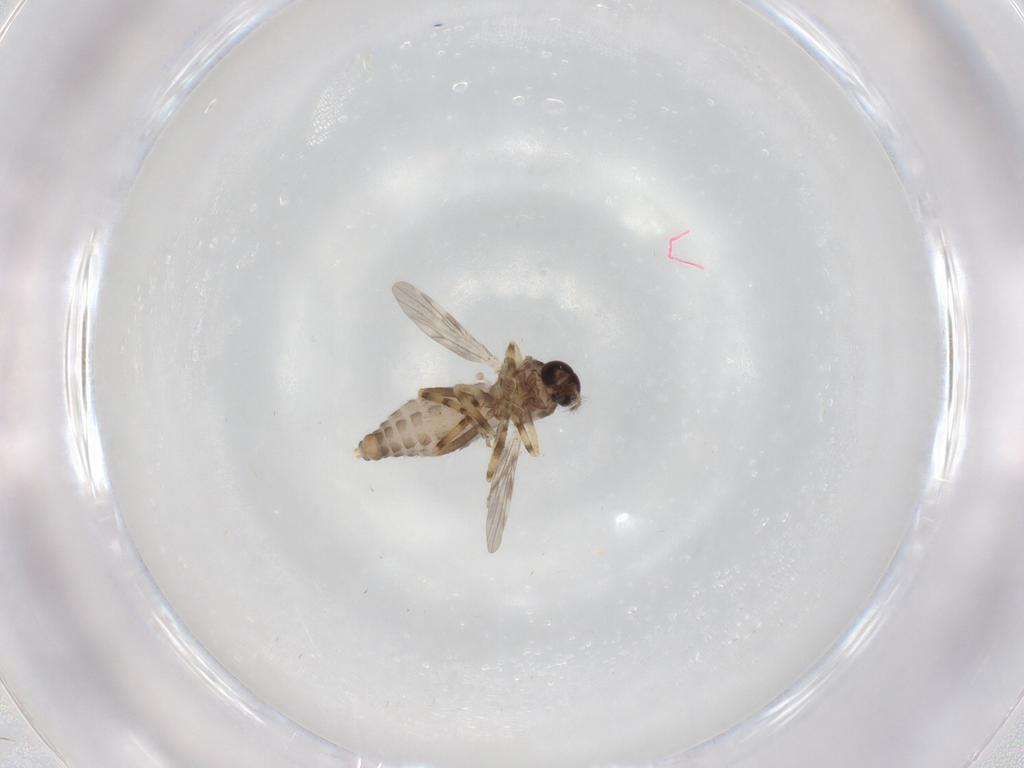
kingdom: Animalia
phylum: Arthropoda
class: Insecta
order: Diptera
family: Ceratopogonidae
